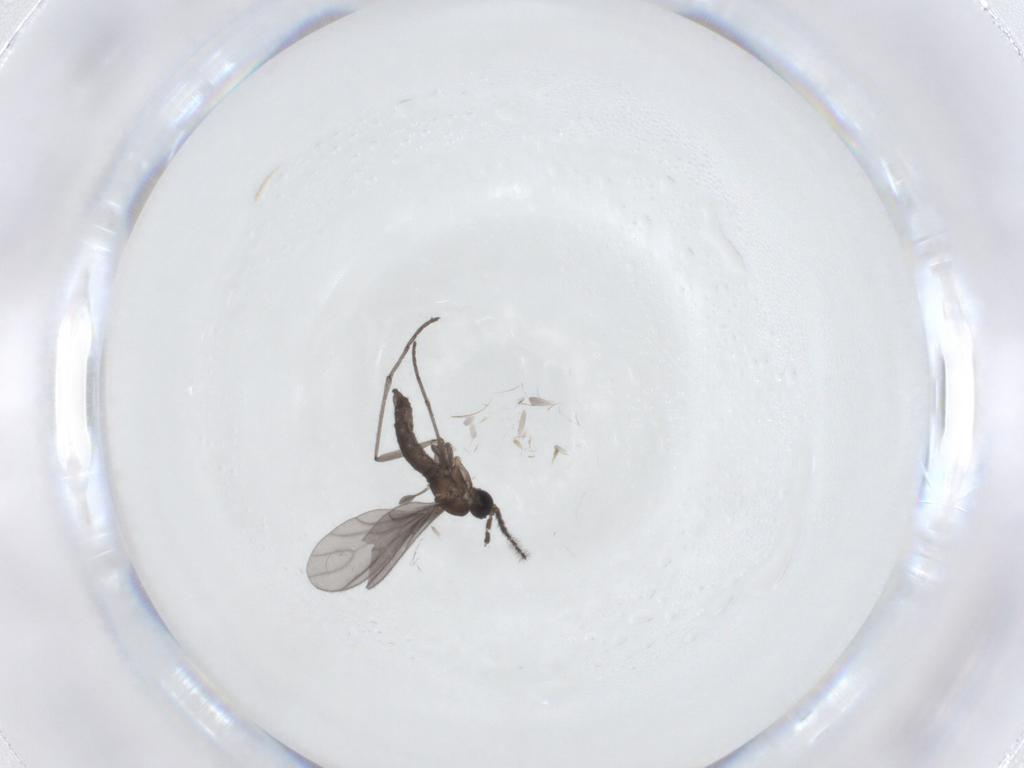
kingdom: Animalia
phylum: Arthropoda
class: Insecta
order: Diptera
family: Sciaridae
